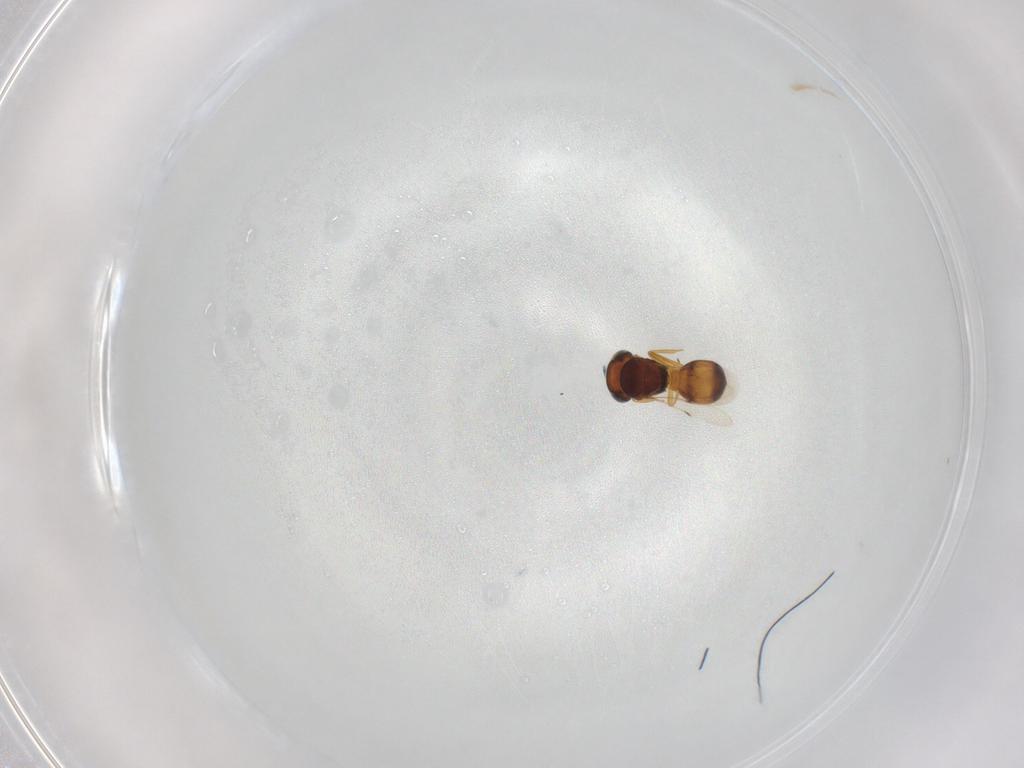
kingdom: Animalia
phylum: Arthropoda
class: Insecta
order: Hymenoptera
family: Scelionidae
